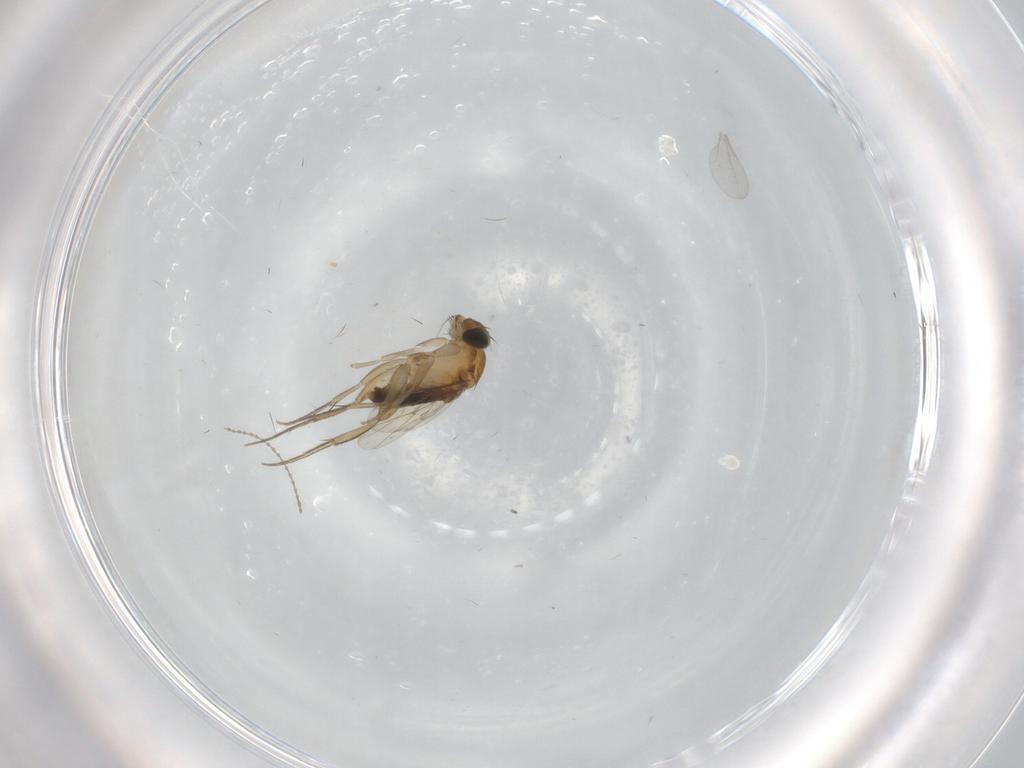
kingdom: Animalia
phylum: Arthropoda
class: Insecta
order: Diptera
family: Phoridae
